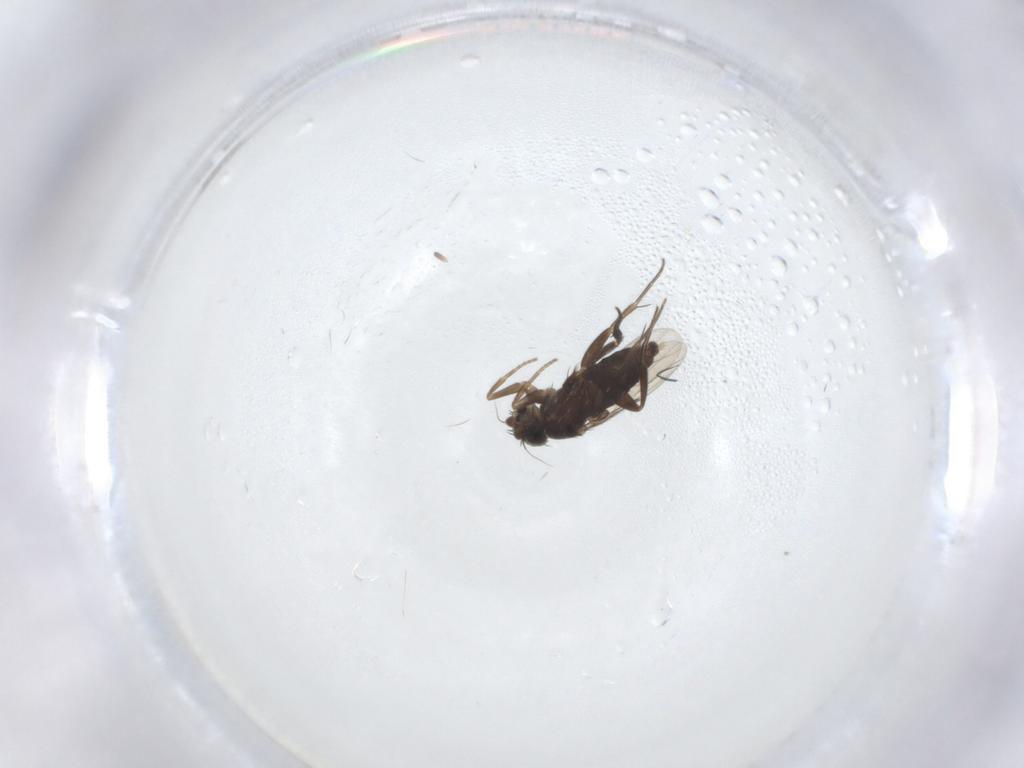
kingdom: Animalia
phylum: Arthropoda
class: Insecta
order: Diptera
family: Phoridae
